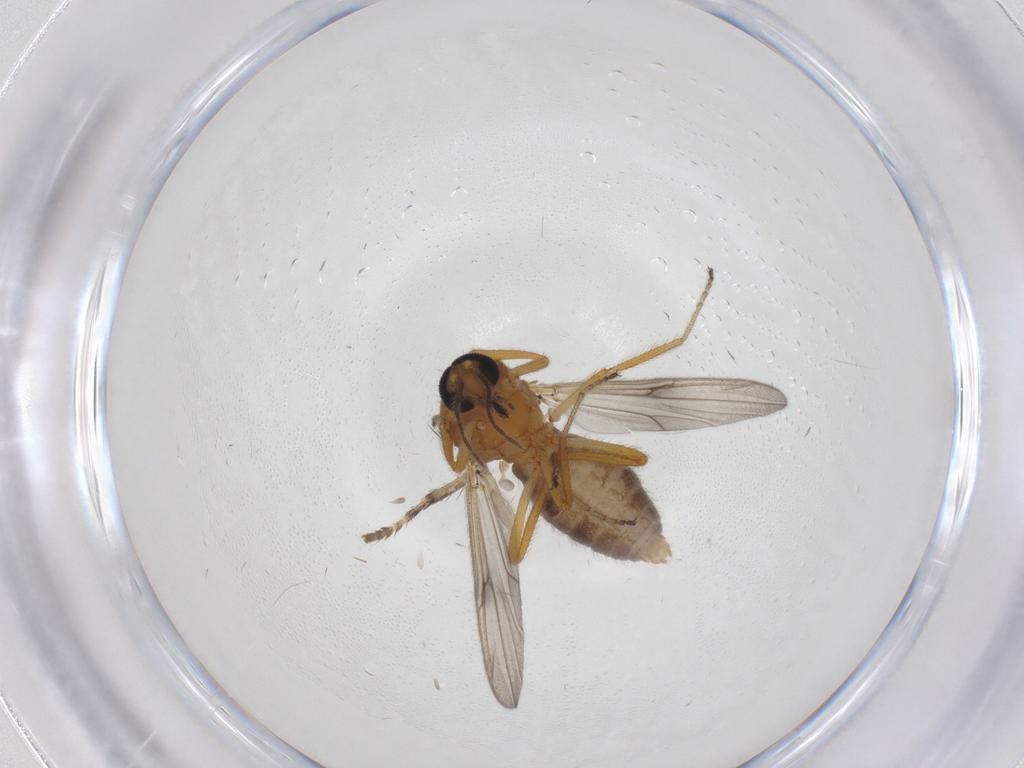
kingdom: Animalia
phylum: Arthropoda
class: Insecta
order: Diptera
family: Ceratopogonidae
